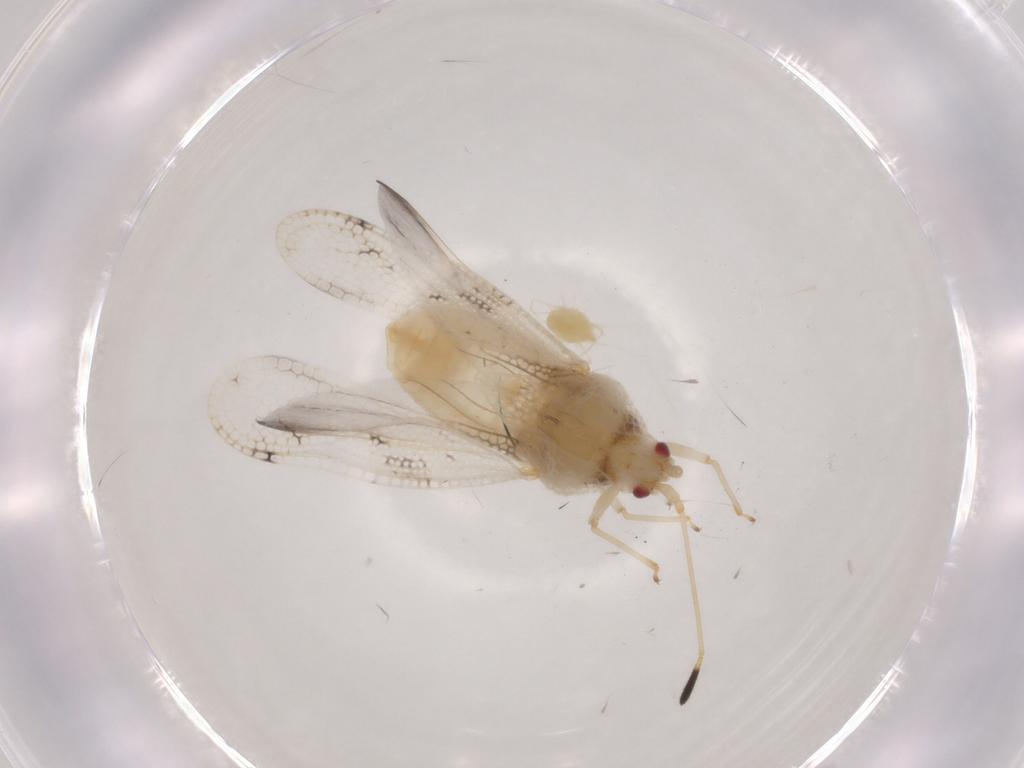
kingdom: Animalia
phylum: Arthropoda
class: Arachnida
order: Trombidiformes
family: Tetranychidae
